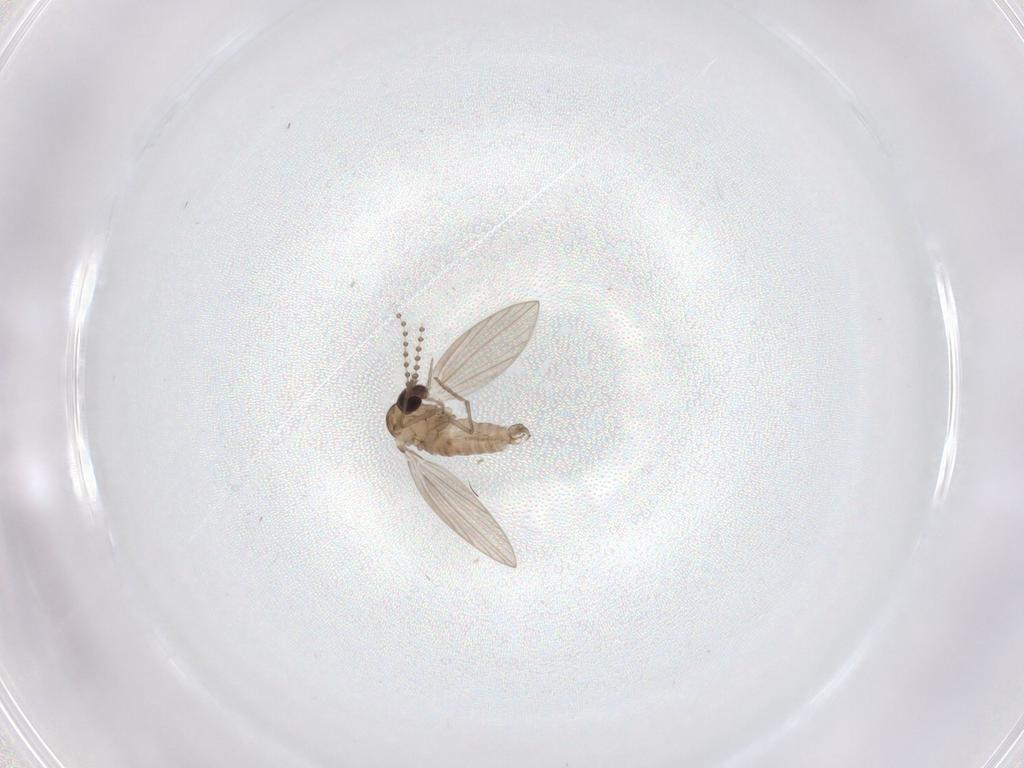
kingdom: Animalia
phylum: Arthropoda
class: Insecta
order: Diptera
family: Psychodidae
